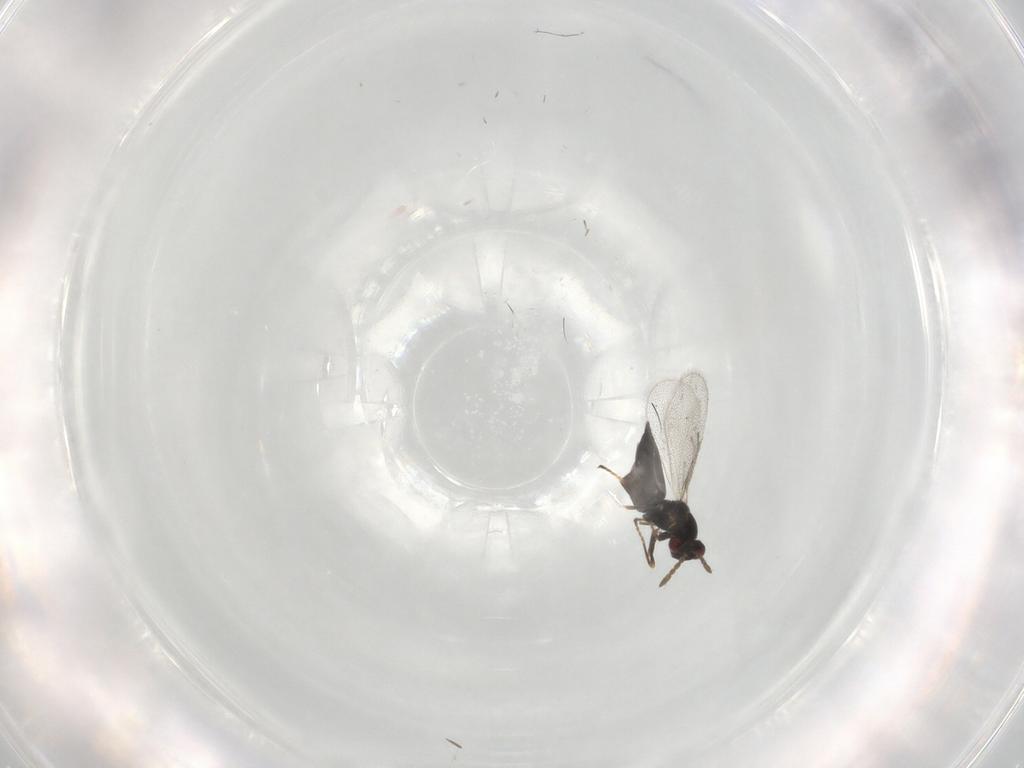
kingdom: Animalia
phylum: Arthropoda
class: Insecta
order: Hymenoptera
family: Eulophidae
